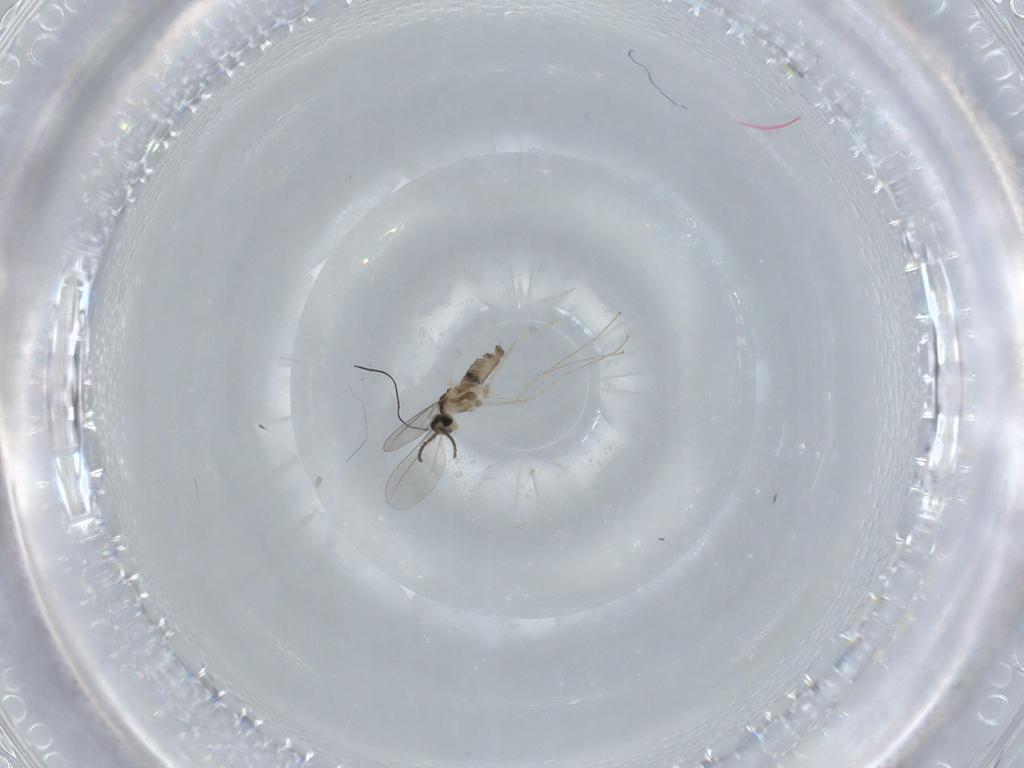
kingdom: Animalia
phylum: Arthropoda
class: Insecta
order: Diptera
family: Cecidomyiidae
